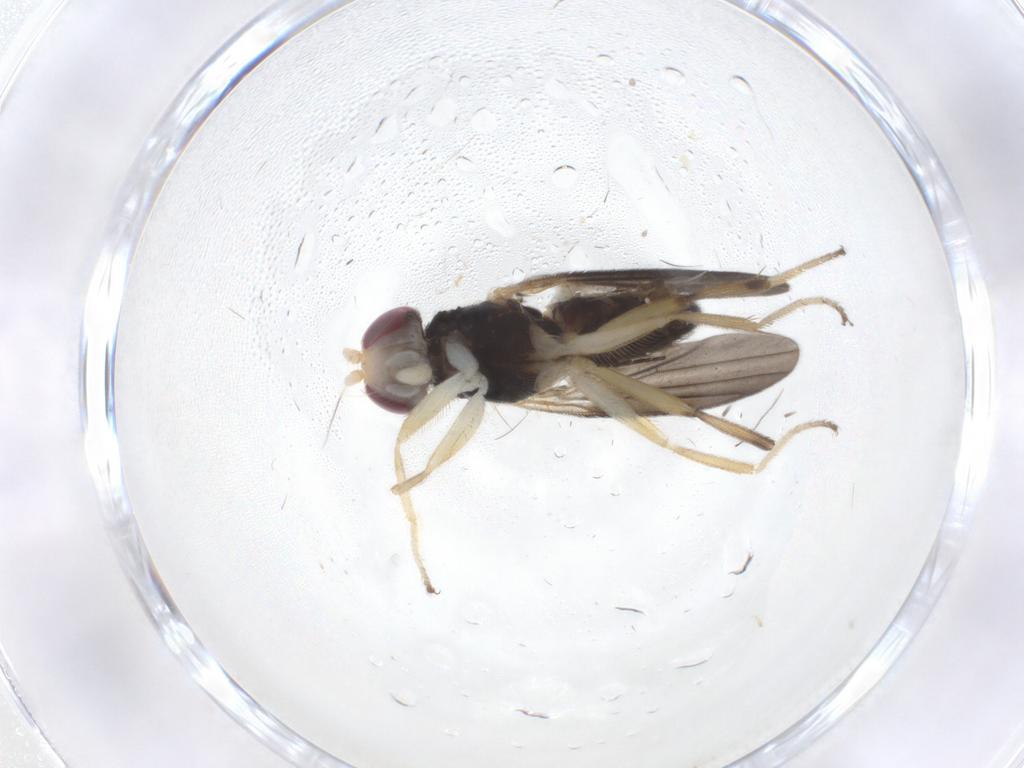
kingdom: Animalia
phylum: Arthropoda
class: Insecta
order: Diptera
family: Clusiidae
